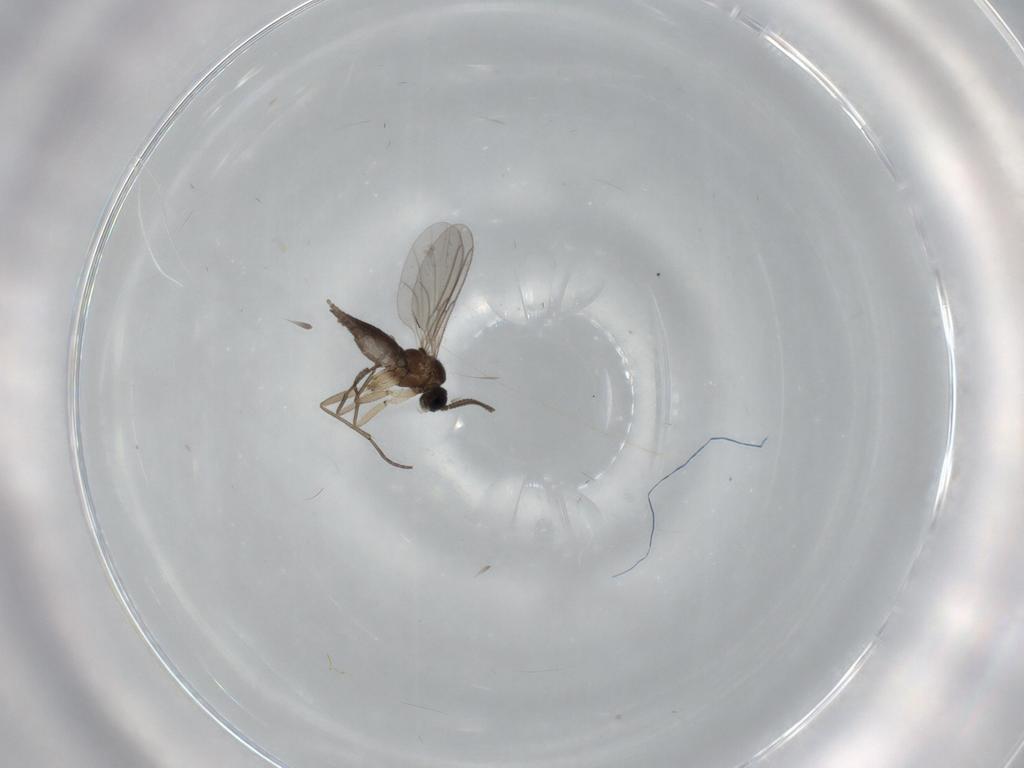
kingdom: Animalia
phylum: Arthropoda
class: Insecta
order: Diptera
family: Sciaridae
